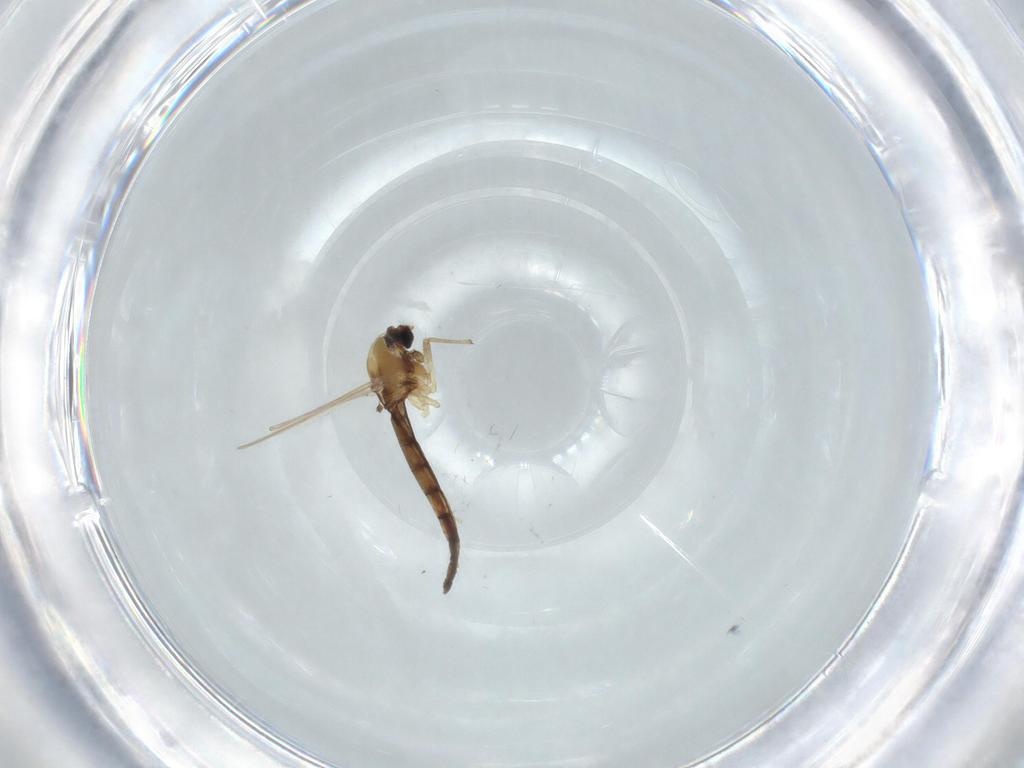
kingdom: Animalia
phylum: Arthropoda
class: Insecta
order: Diptera
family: Chironomidae
